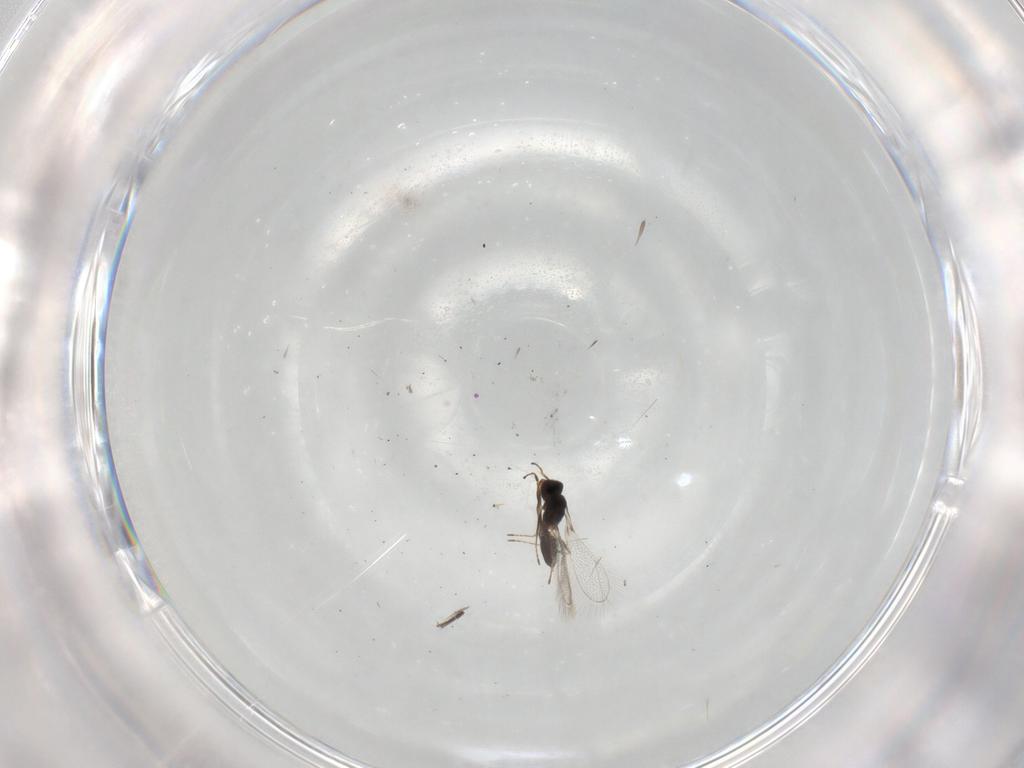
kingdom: Animalia
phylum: Arthropoda
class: Insecta
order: Hymenoptera
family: Mymaridae
